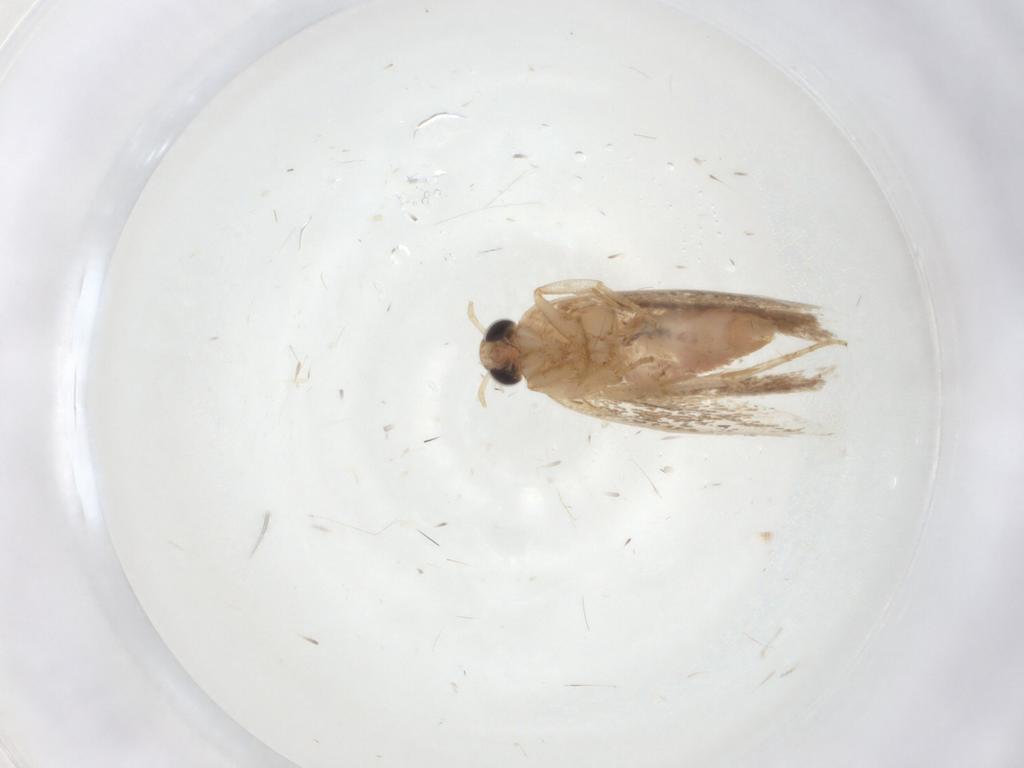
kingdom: Animalia
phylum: Arthropoda
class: Insecta
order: Lepidoptera
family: Gelechiidae
